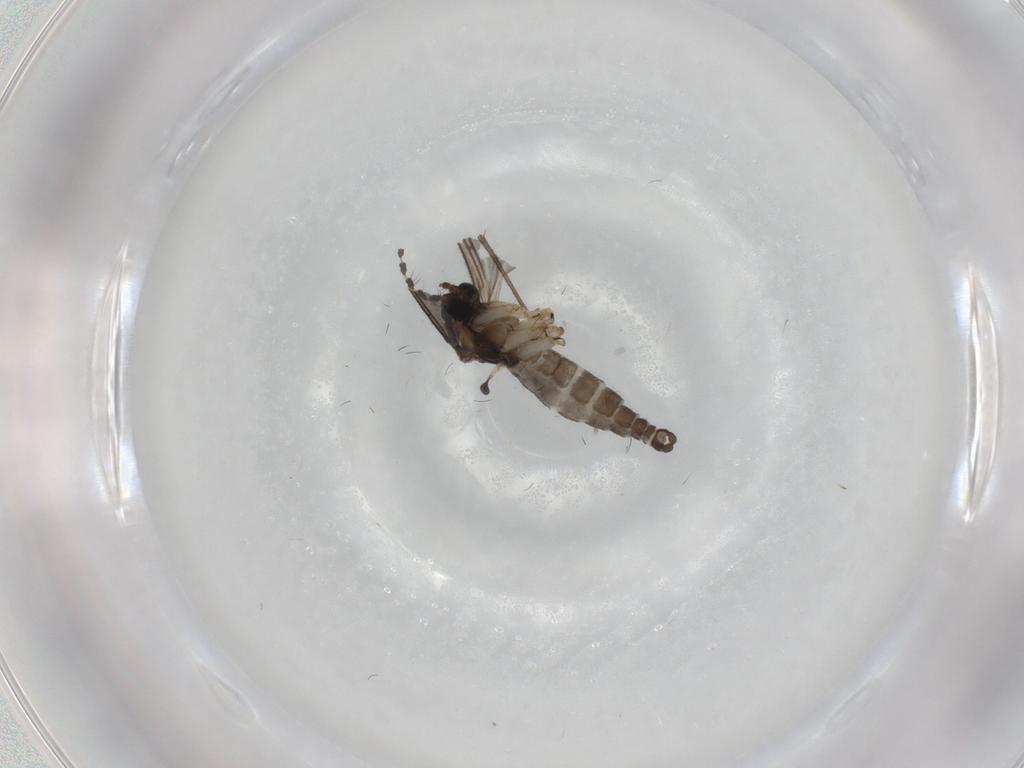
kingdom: Animalia
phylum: Arthropoda
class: Insecta
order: Diptera
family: Sciaridae
